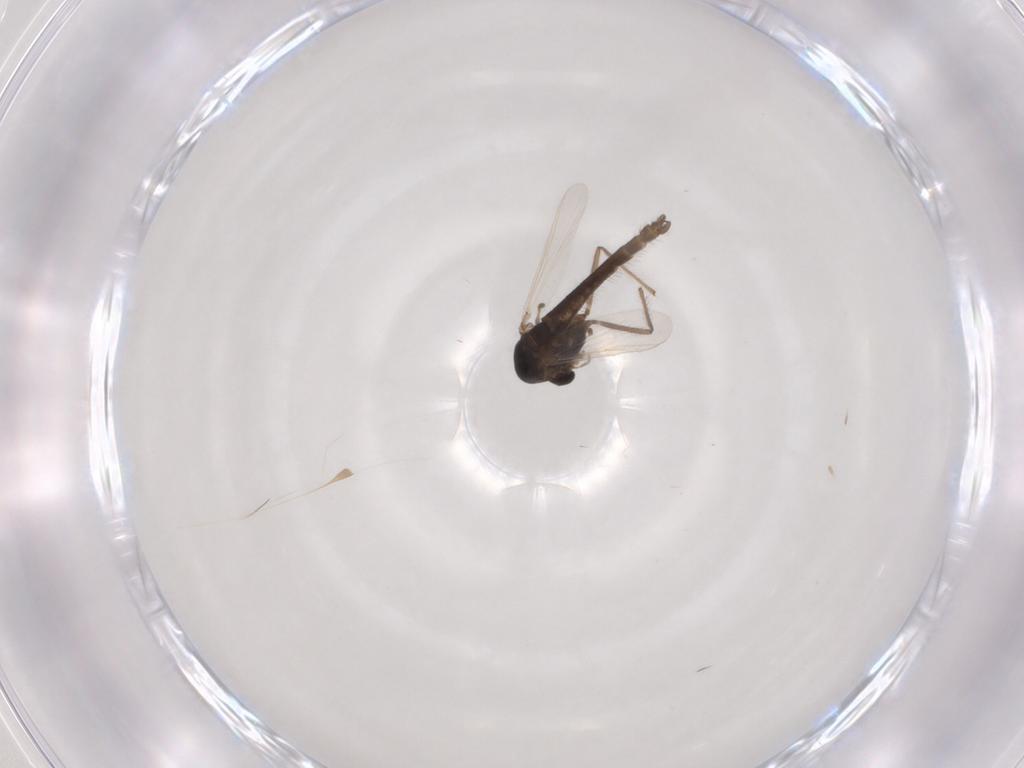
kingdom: Animalia
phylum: Arthropoda
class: Insecta
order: Diptera
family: Chironomidae
